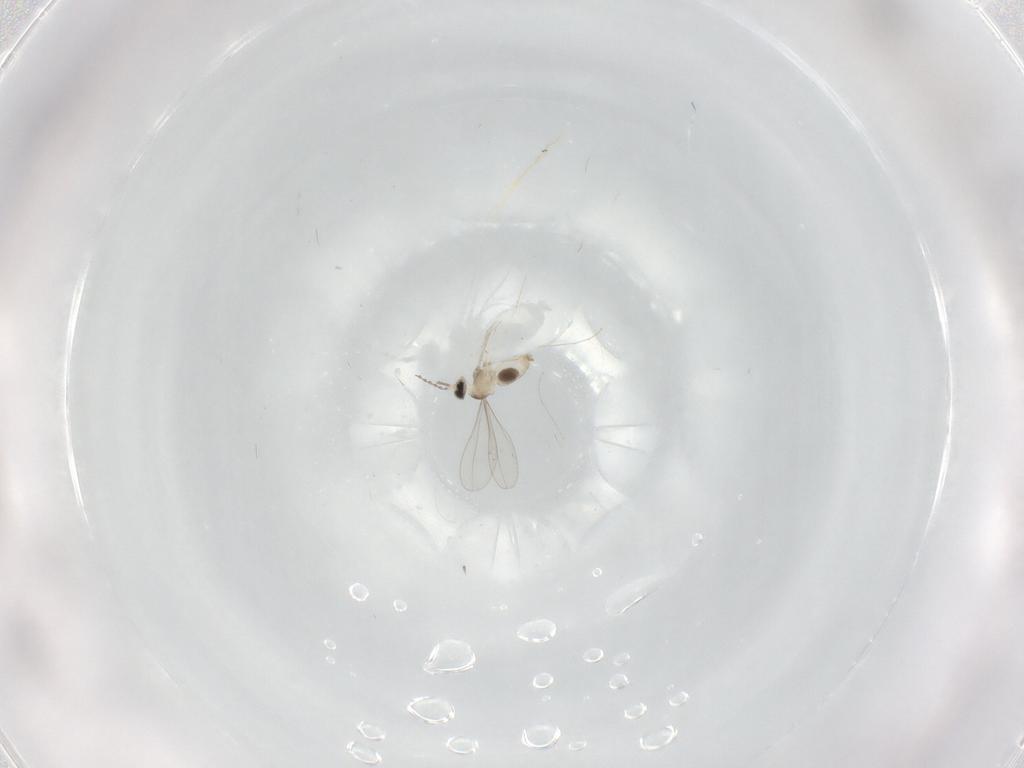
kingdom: Animalia
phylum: Arthropoda
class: Insecta
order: Diptera
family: Cecidomyiidae
